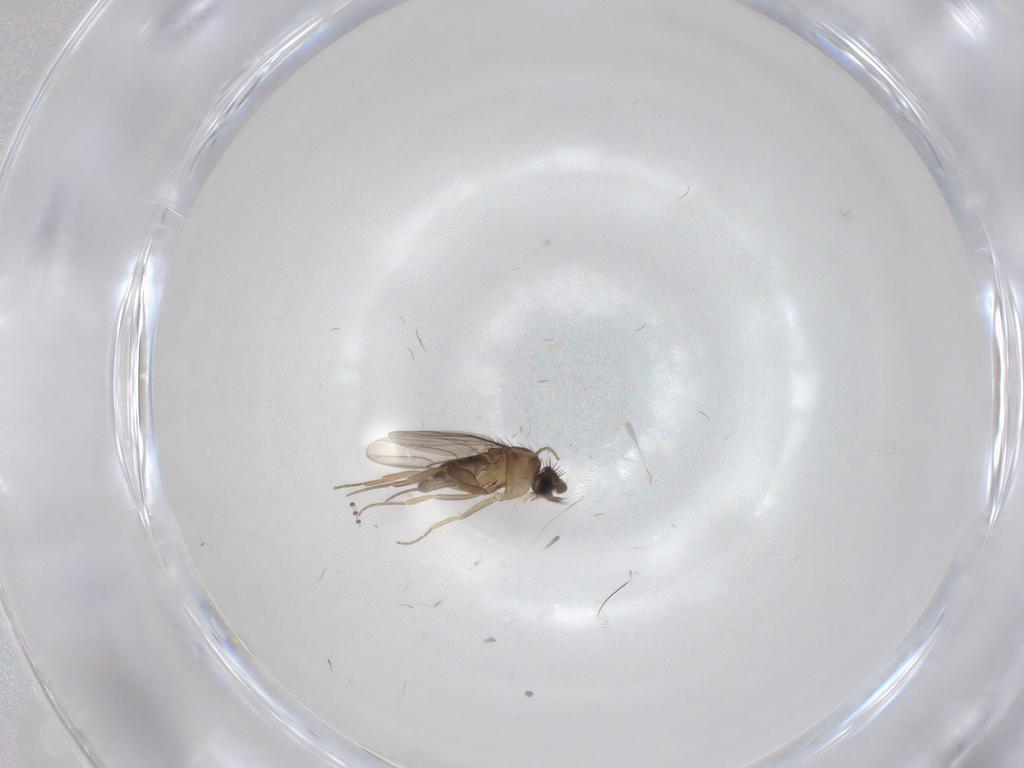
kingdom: Animalia
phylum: Arthropoda
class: Insecta
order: Diptera
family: Psychodidae
